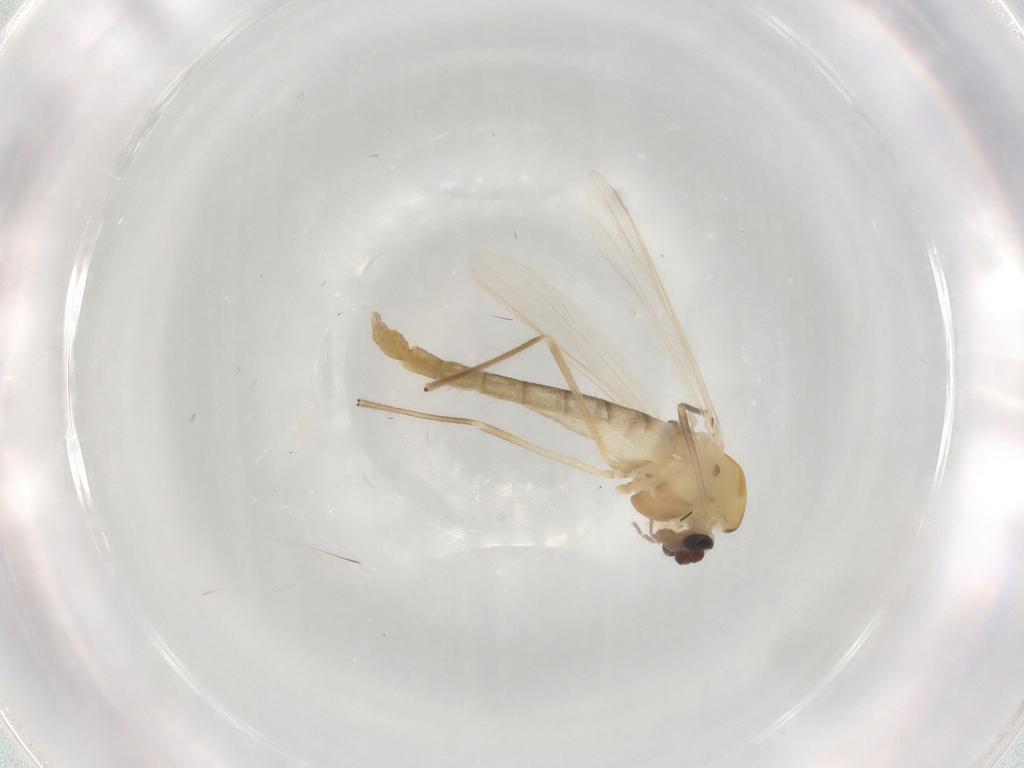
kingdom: Animalia
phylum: Arthropoda
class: Insecta
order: Diptera
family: Chironomidae
